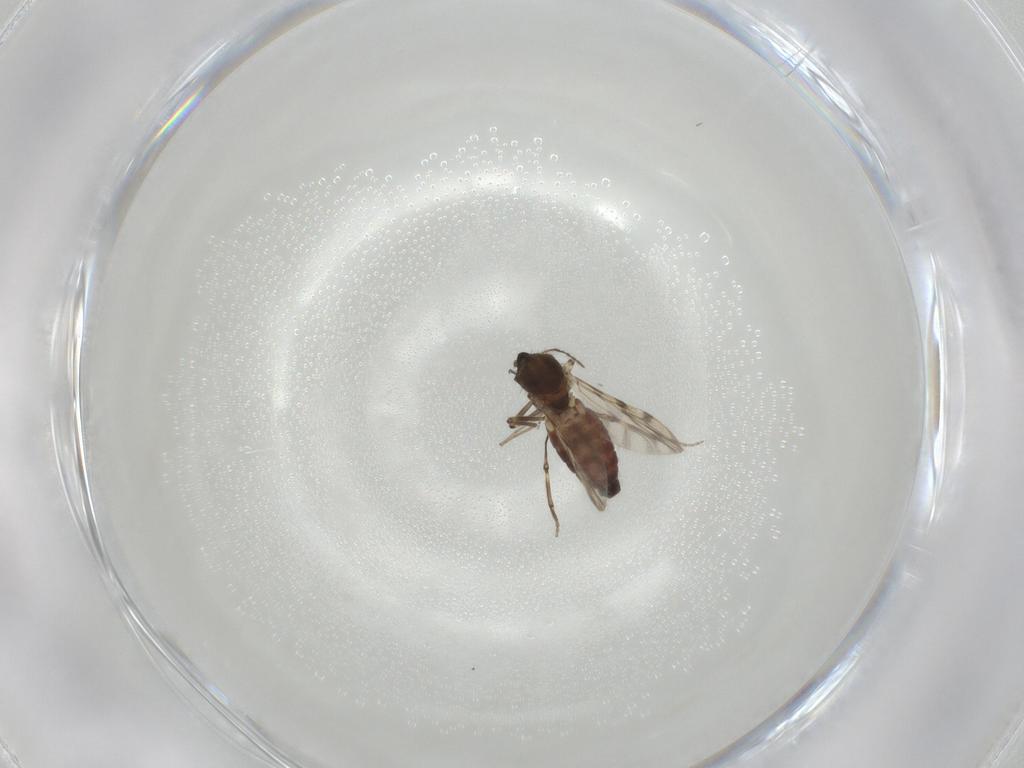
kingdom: Animalia
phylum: Arthropoda
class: Insecta
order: Diptera
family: Ceratopogonidae
